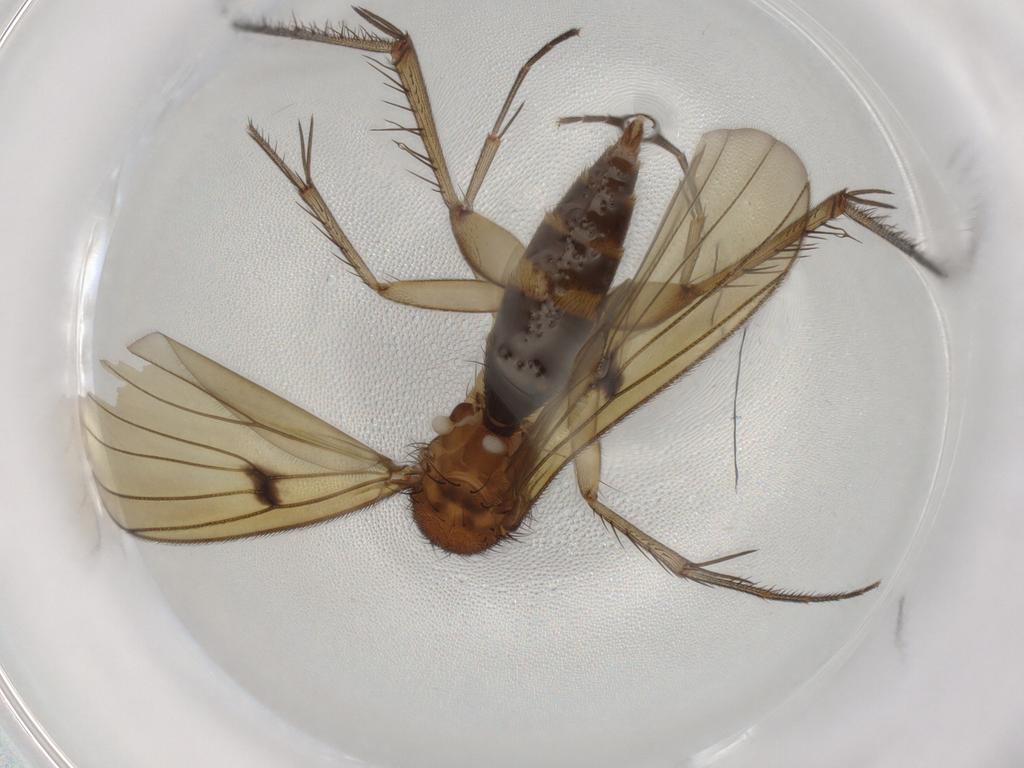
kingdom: Animalia
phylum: Arthropoda
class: Insecta
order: Diptera
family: Mycetophilidae
